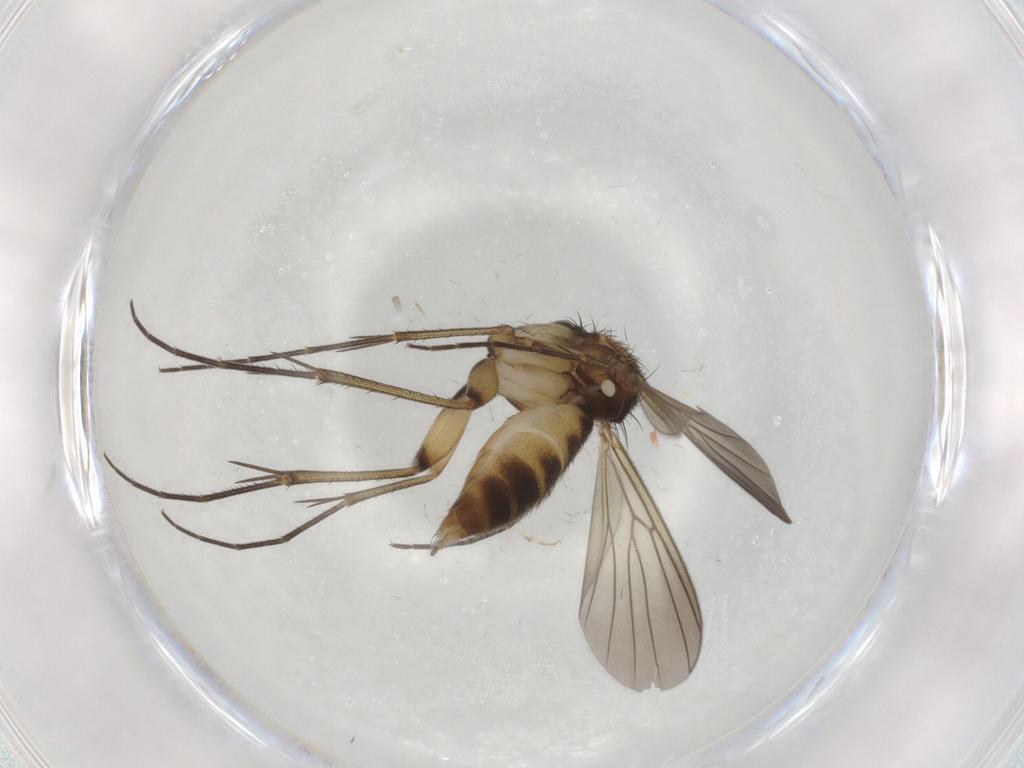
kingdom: Animalia
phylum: Arthropoda
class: Insecta
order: Diptera
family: Mycetophilidae
